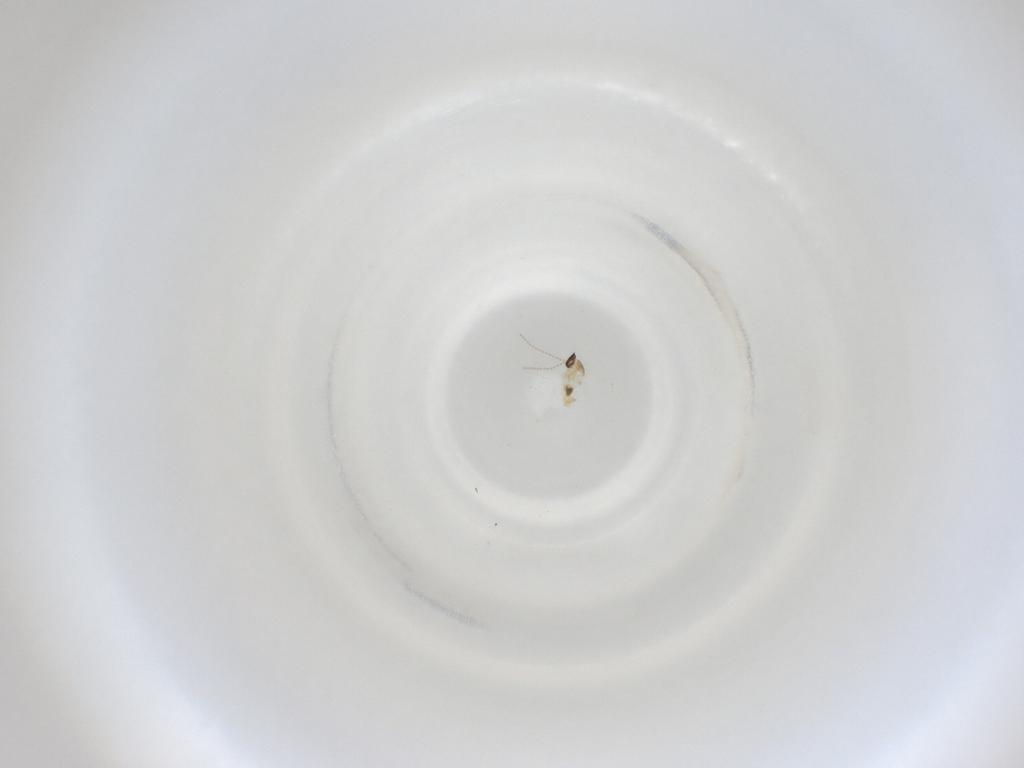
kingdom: Animalia
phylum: Arthropoda
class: Insecta
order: Diptera
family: Cecidomyiidae
